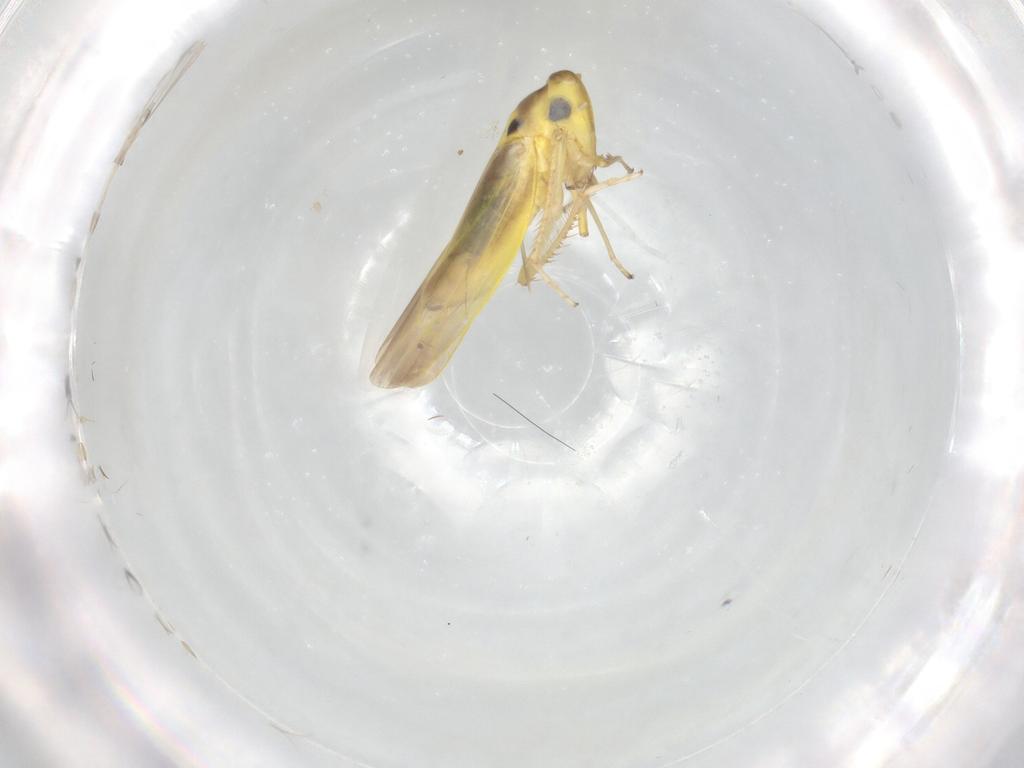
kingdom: Animalia
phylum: Arthropoda
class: Insecta
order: Hemiptera
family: Cicadellidae
